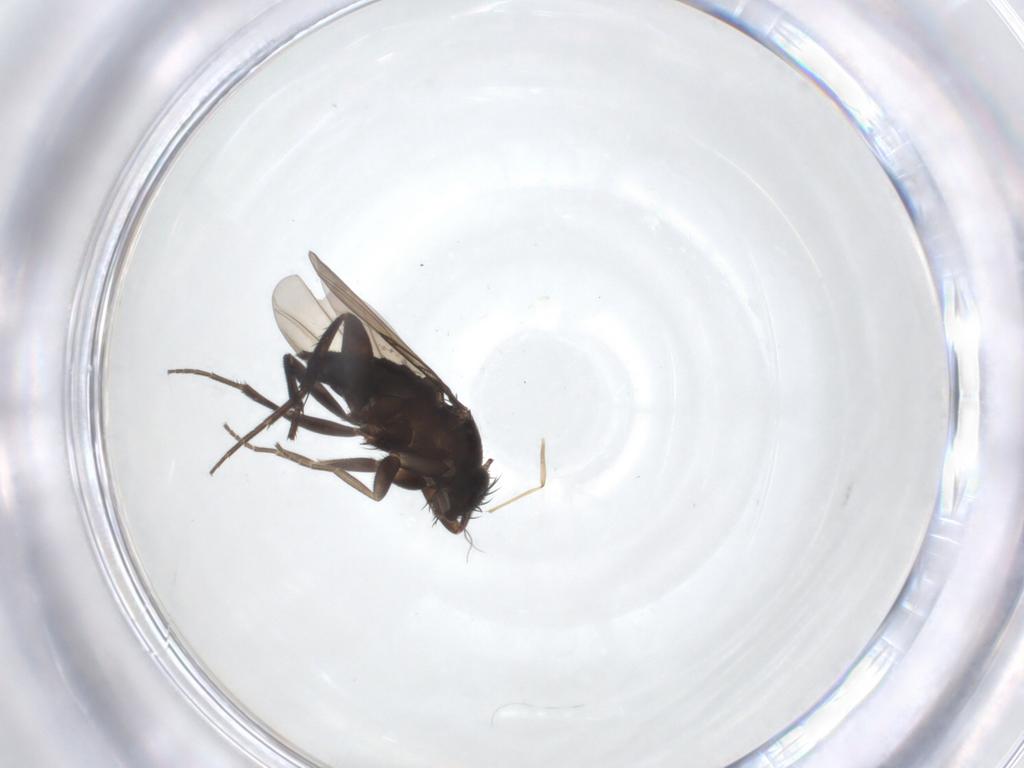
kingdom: Animalia
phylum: Arthropoda
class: Insecta
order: Diptera
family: Phoridae
